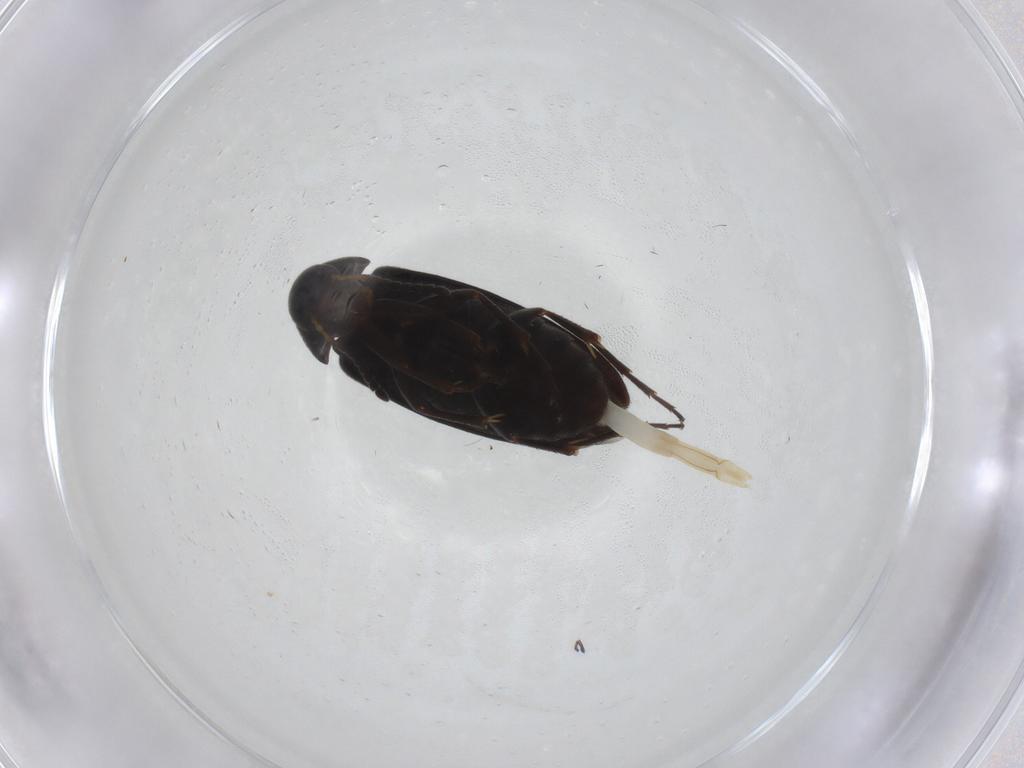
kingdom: Animalia
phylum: Arthropoda
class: Insecta
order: Coleoptera
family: Scraptiidae
